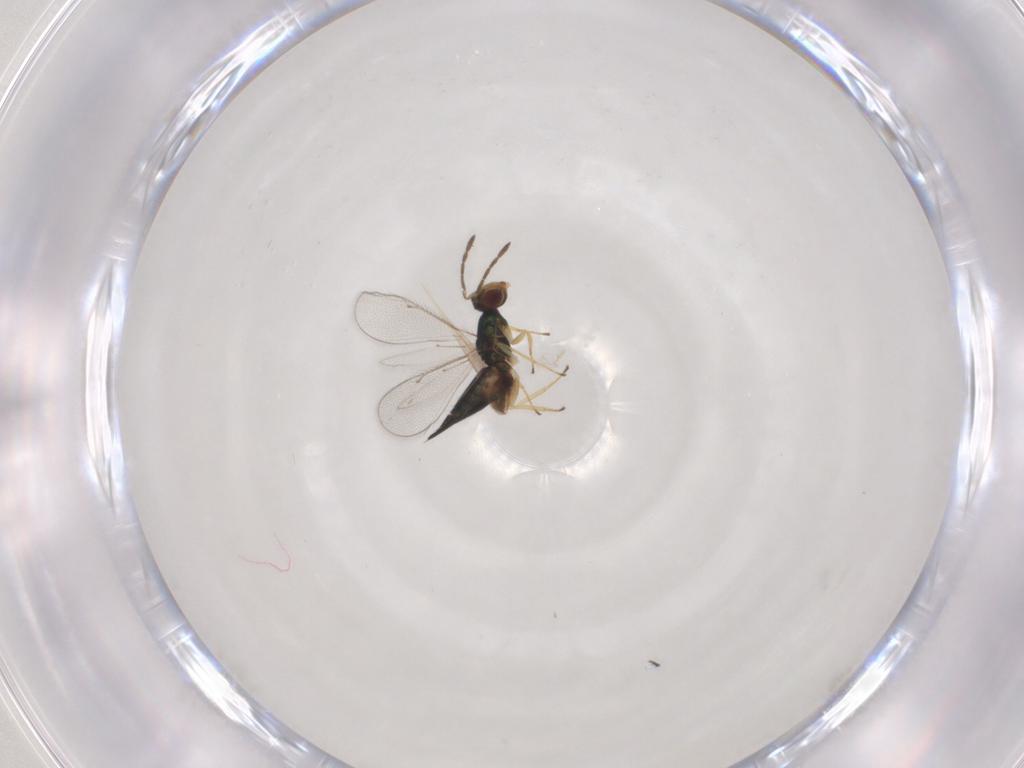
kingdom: Animalia
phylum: Arthropoda
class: Insecta
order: Hymenoptera
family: Eulophidae
